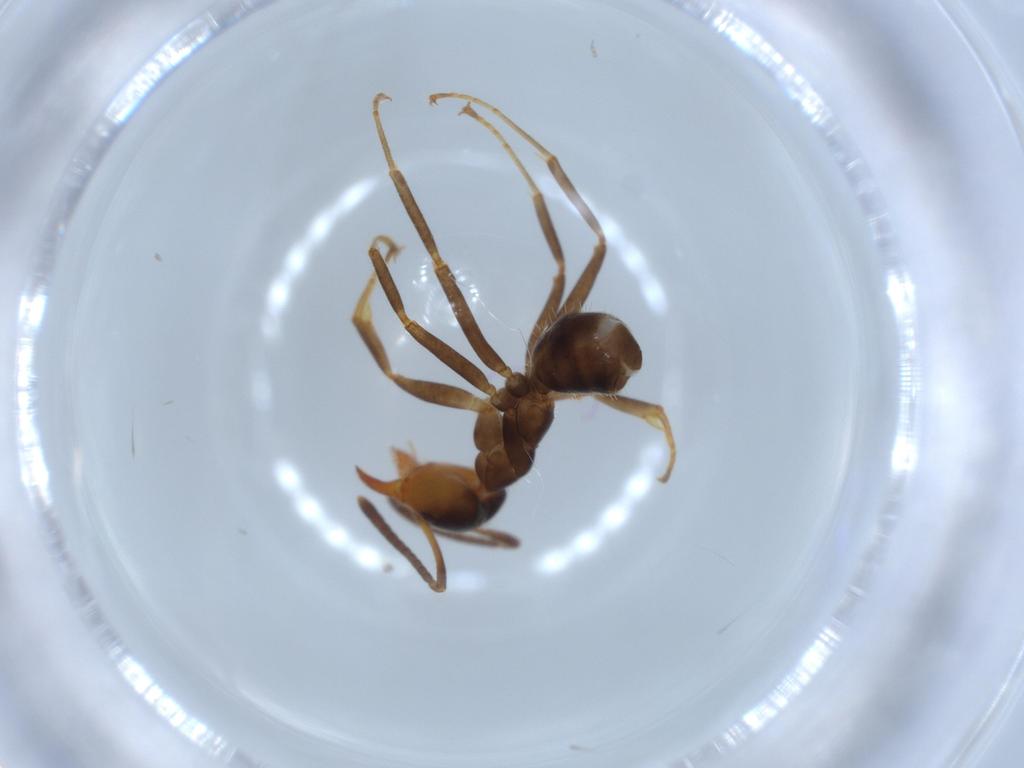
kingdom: Animalia
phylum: Arthropoda
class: Insecta
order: Hymenoptera
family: Formicidae
